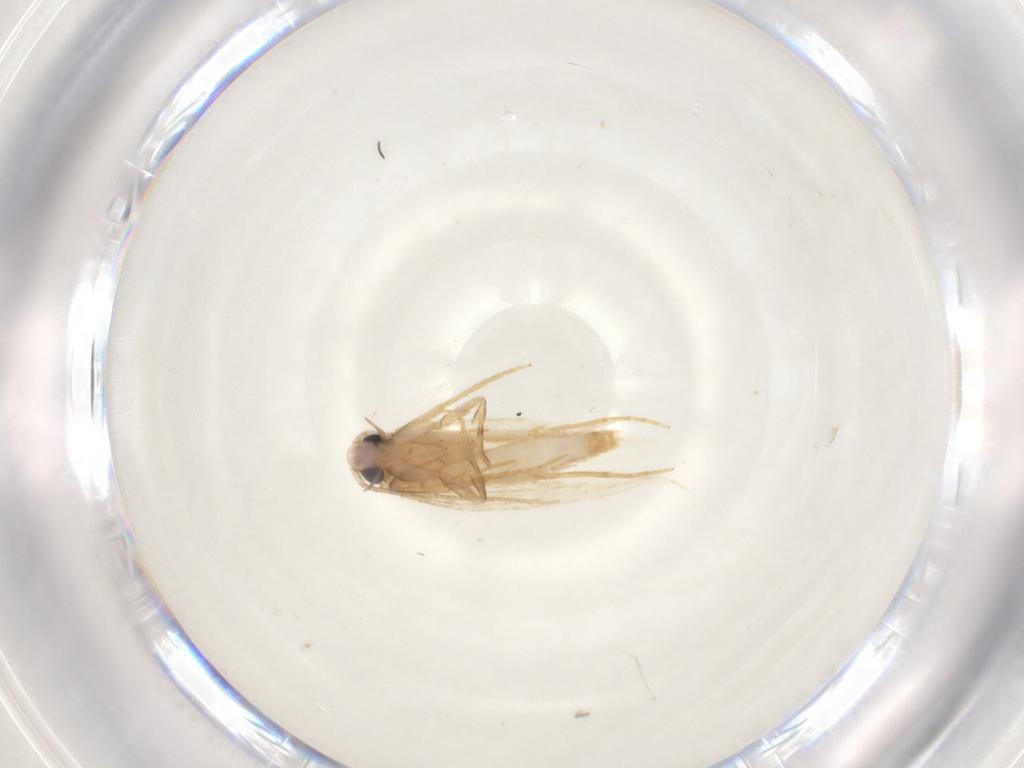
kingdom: Animalia
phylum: Arthropoda
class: Insecta
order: Lepidoptera
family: Tineidae
